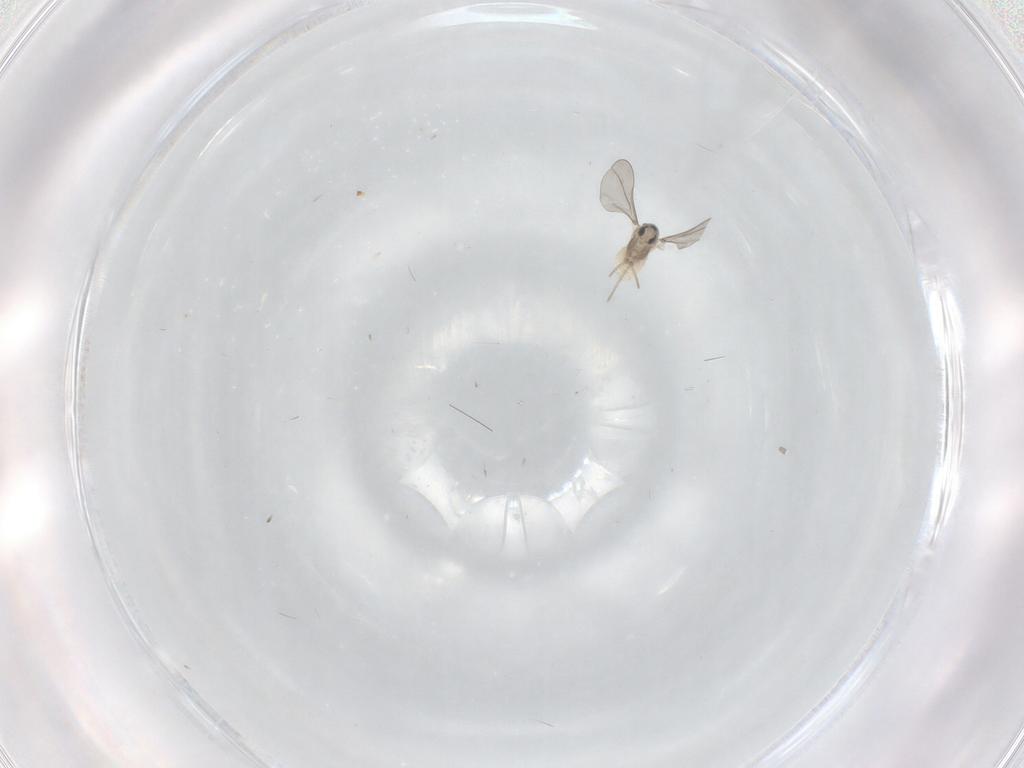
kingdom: Animalia
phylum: Arthropoda
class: Insecta
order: Diptera
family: Cecidomyiidae
